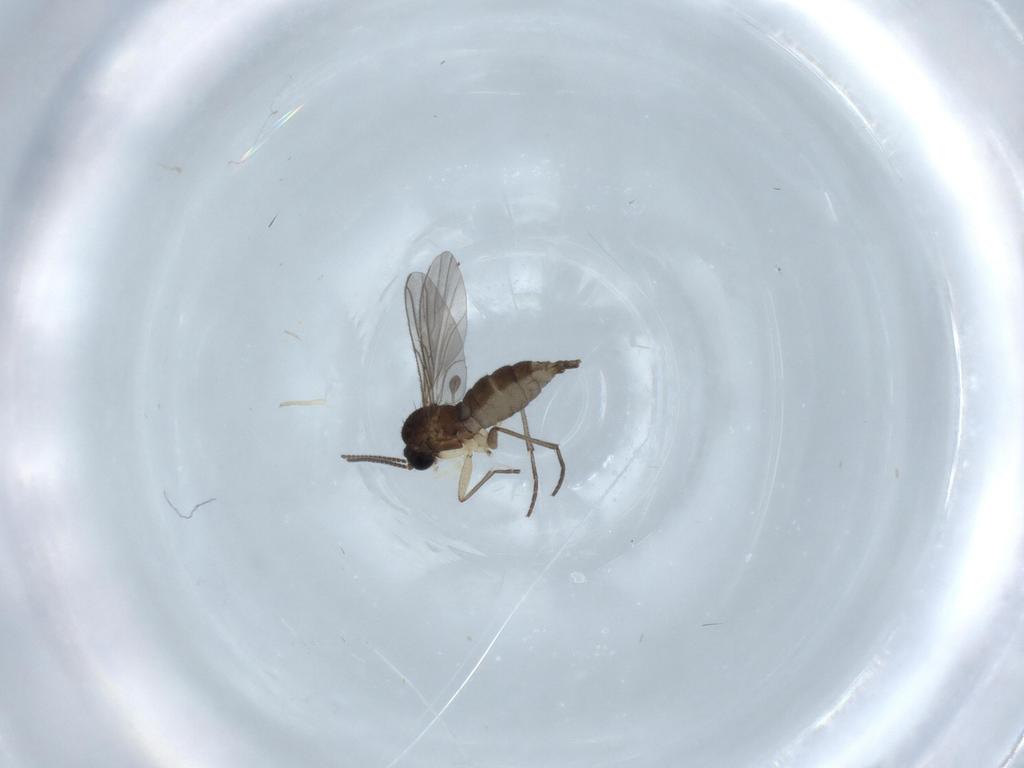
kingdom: Animalia
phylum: Arthropoda
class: Insecta
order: Diptera
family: Sciaridae
